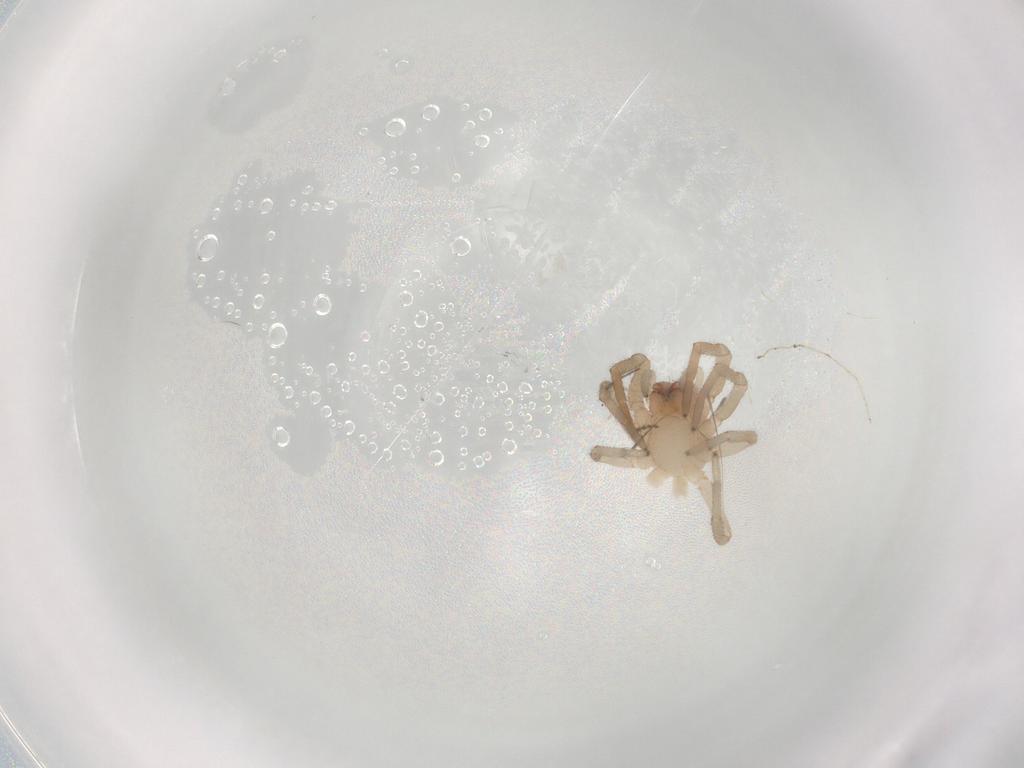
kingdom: Animalia
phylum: Arthropoda
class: Arachnida
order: Araneae
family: Trachelidae
